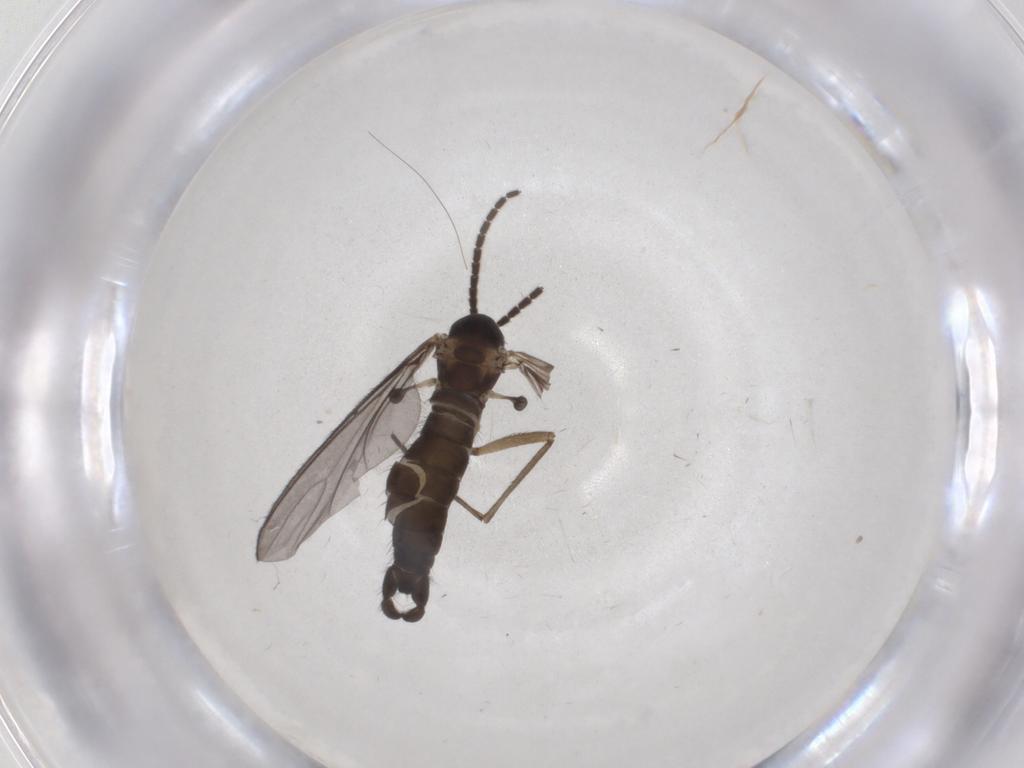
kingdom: Animalia
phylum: Arthropoda
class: Insecta
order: Diptera
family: Sciaridae
